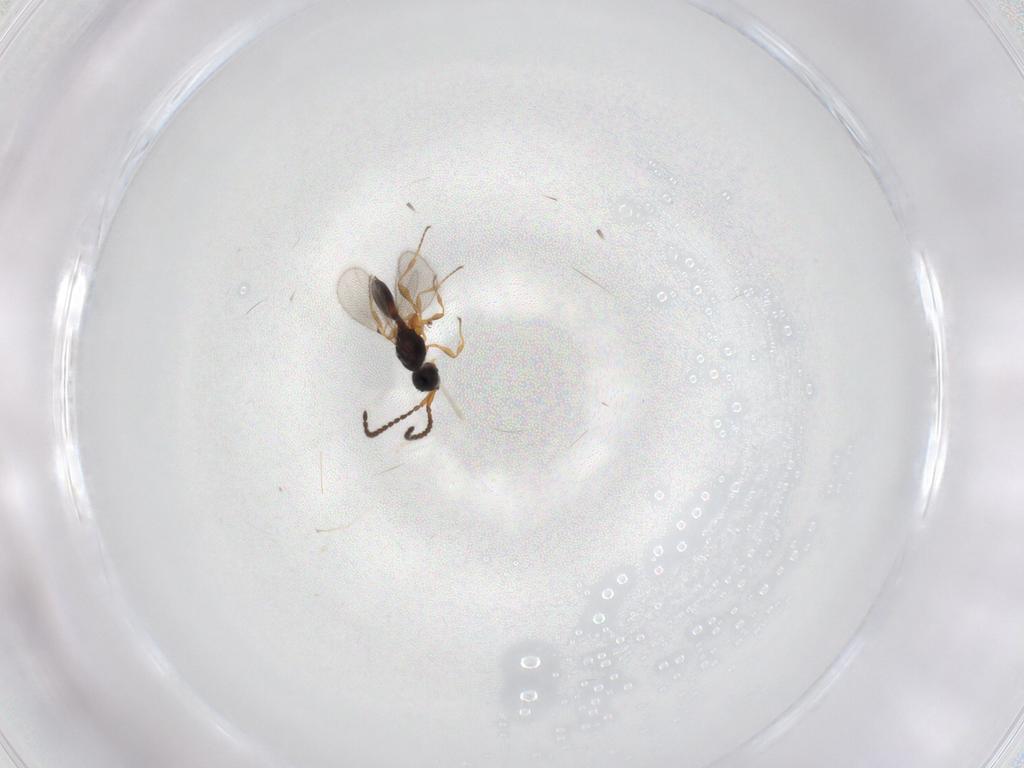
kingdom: Animalia
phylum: Arthropoda
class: Insecta
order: Hymenoptera
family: Diapriidae
